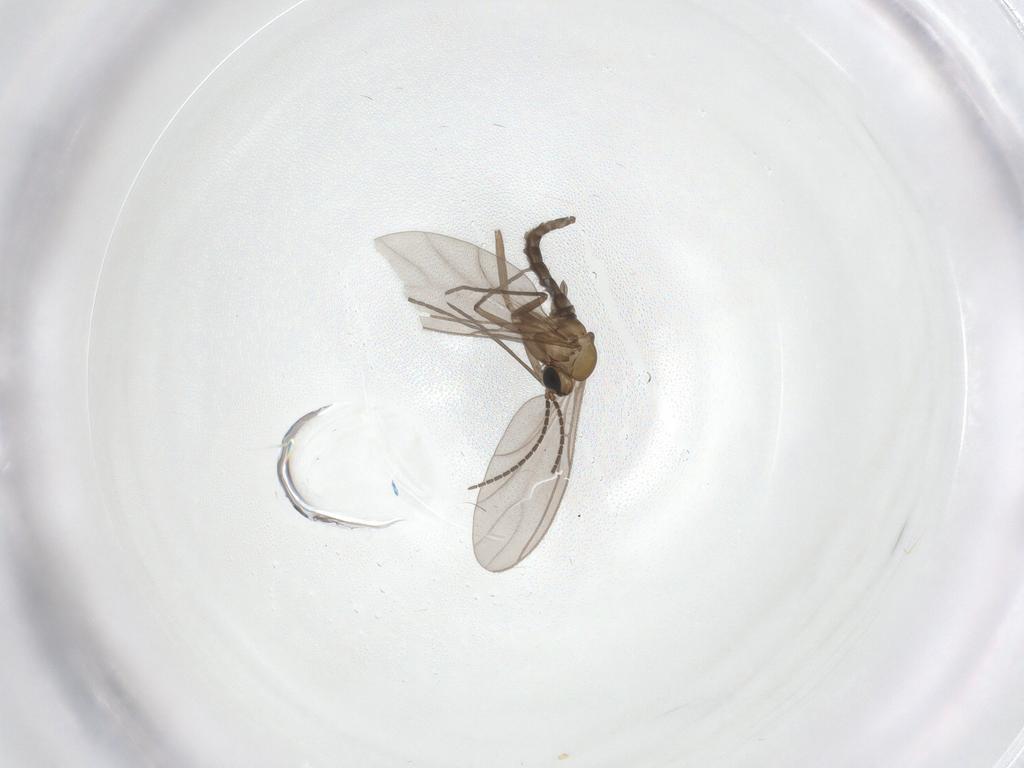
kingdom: Animalia
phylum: Arthropoda
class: Insecta
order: Diptera
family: Sciaridae
